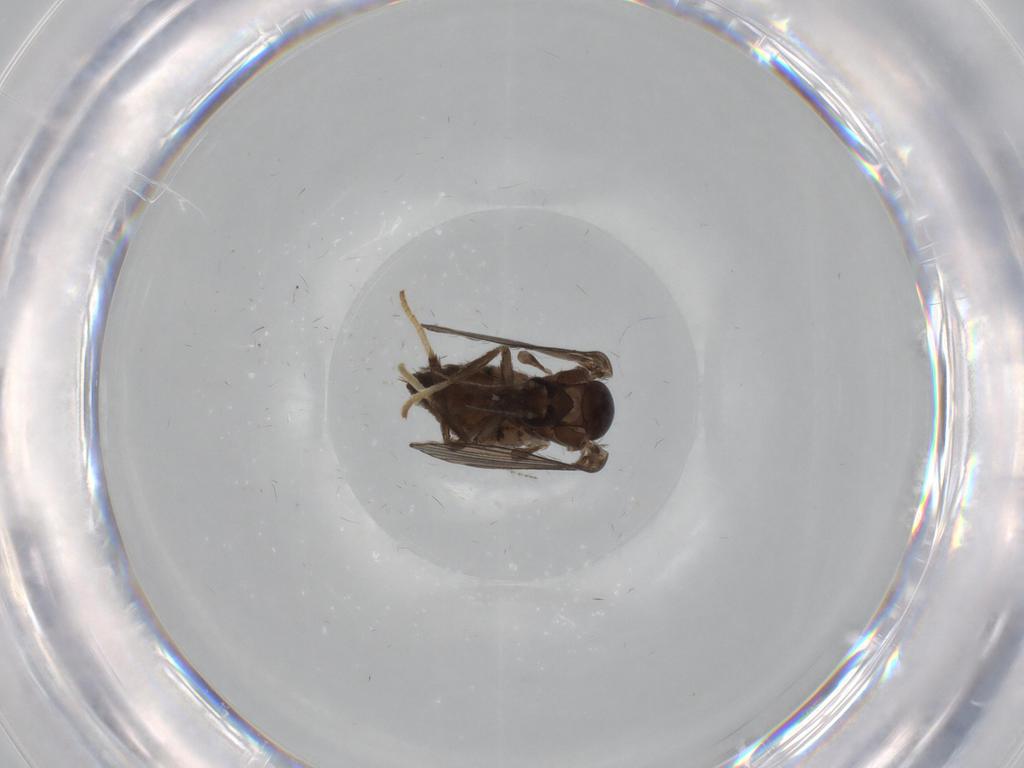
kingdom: Animalia
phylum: Arthropoda
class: Insecta
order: Diptera
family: Psychodidae
